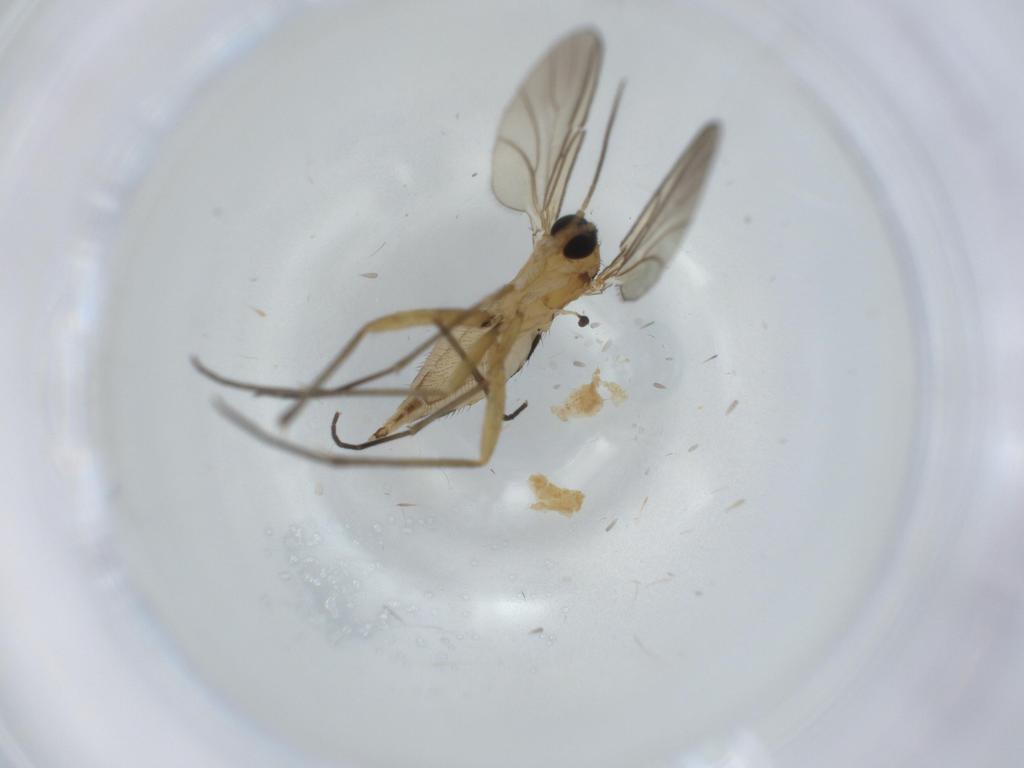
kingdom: Animalia
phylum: Arthropoda
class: Insecta
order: Diptera
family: Sciaridae
